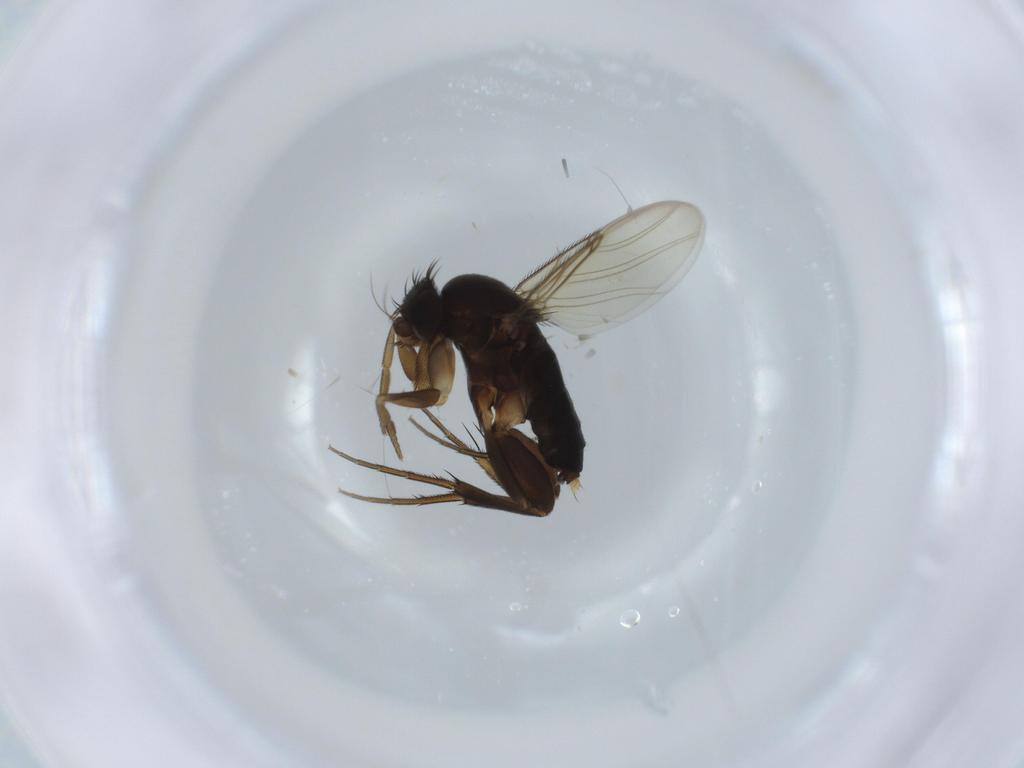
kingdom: Animalia
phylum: Arthropoda
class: Insecta
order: Diptera
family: Phoridae
